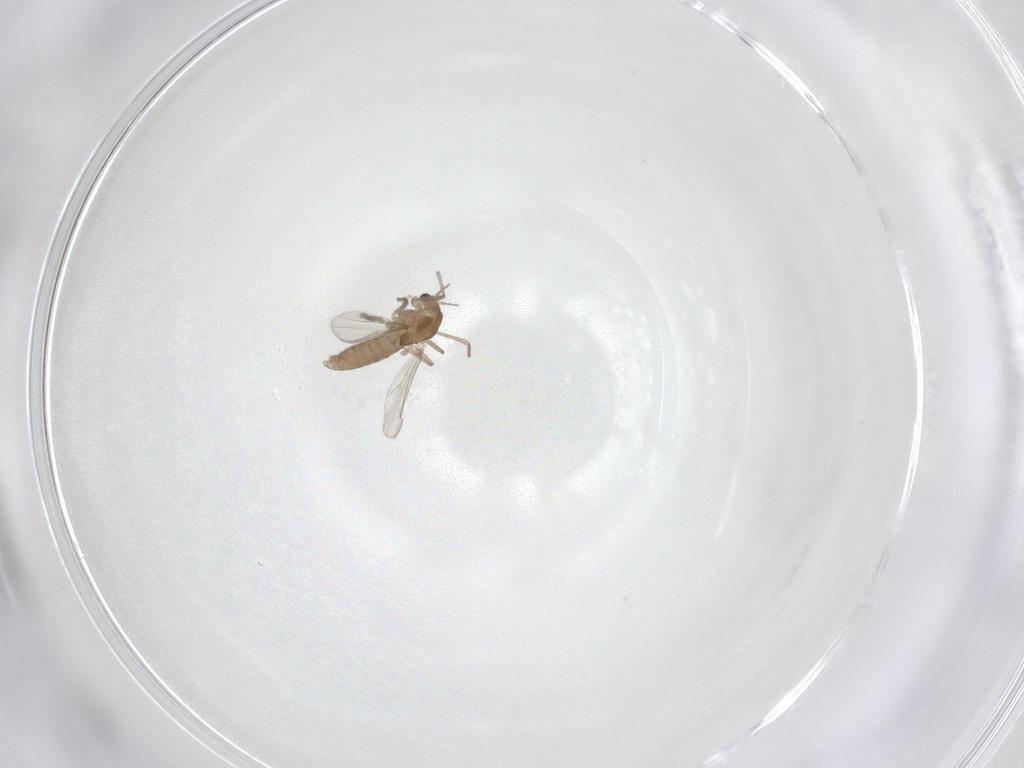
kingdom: Animalia
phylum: Arthropoda
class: Insecta
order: Diptera
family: Chironomidae
